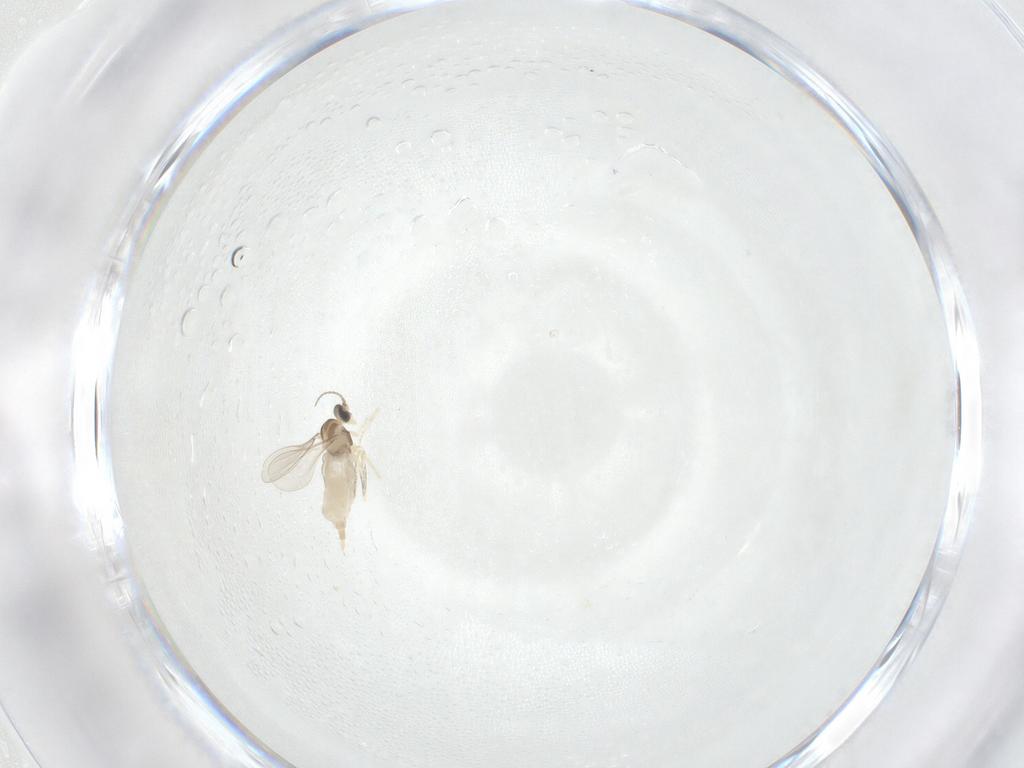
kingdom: Animalia
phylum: Arthropoda
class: Insecta
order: Diptera
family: Cecidomyiidae
